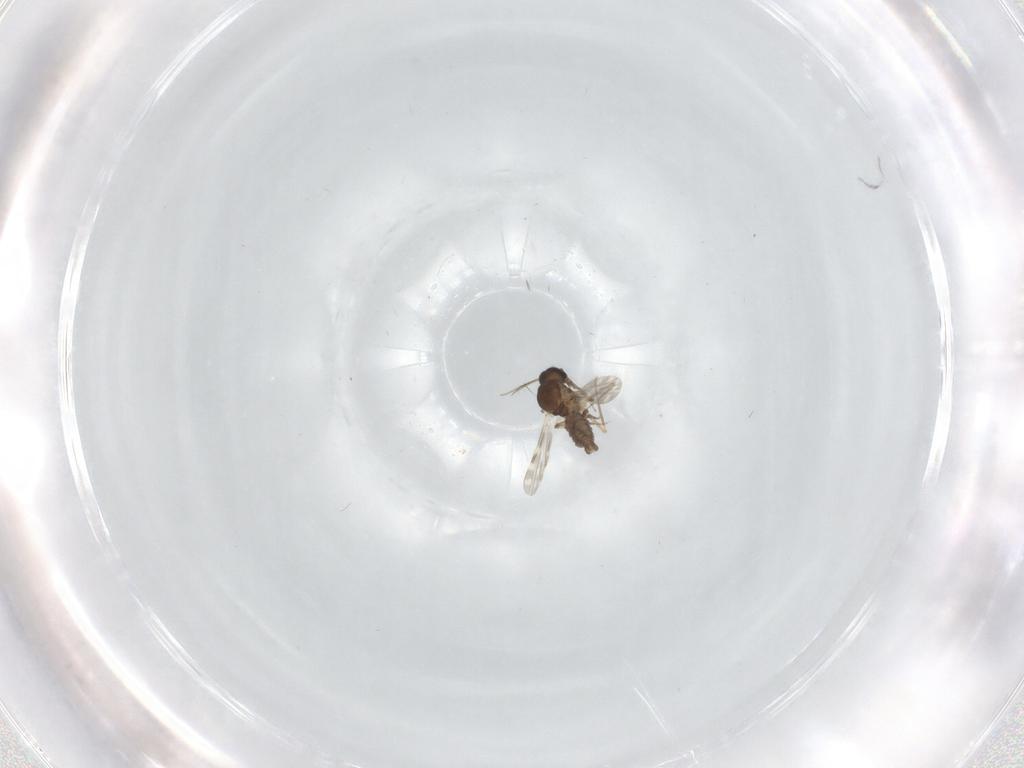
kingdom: Animalia
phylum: Arthropoda
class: Insecta
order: Diptera
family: Ceratopogonidae
